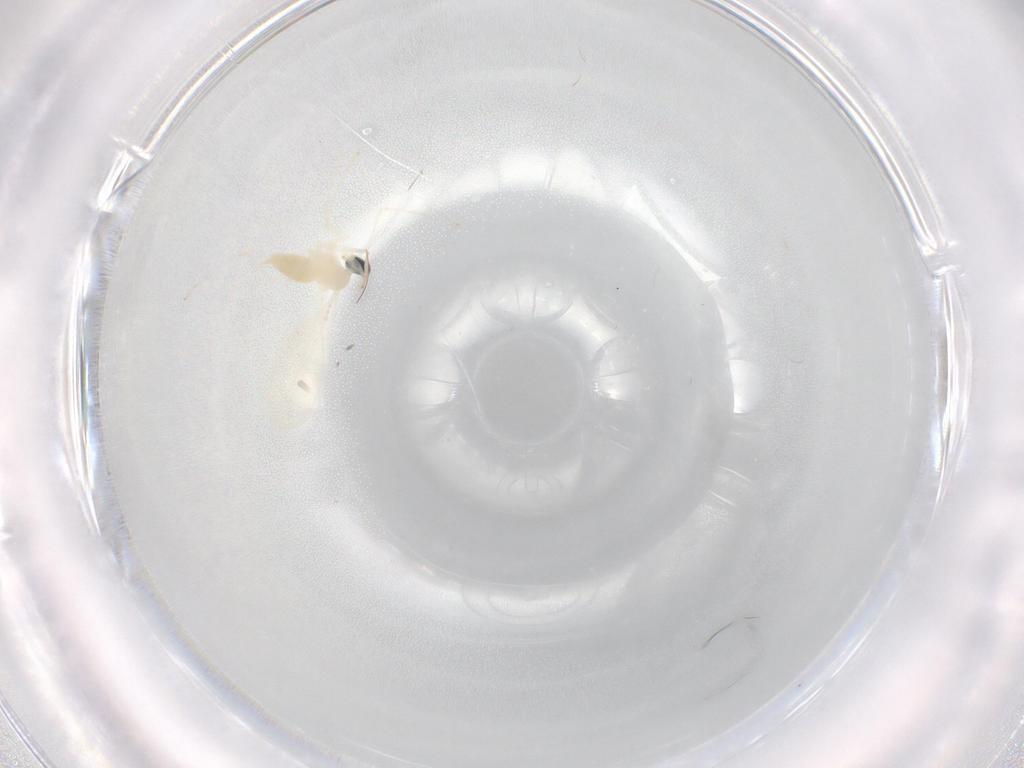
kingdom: Animalia
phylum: Arthropoda
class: Insecta
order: Diptera
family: Cecidomyiidae
